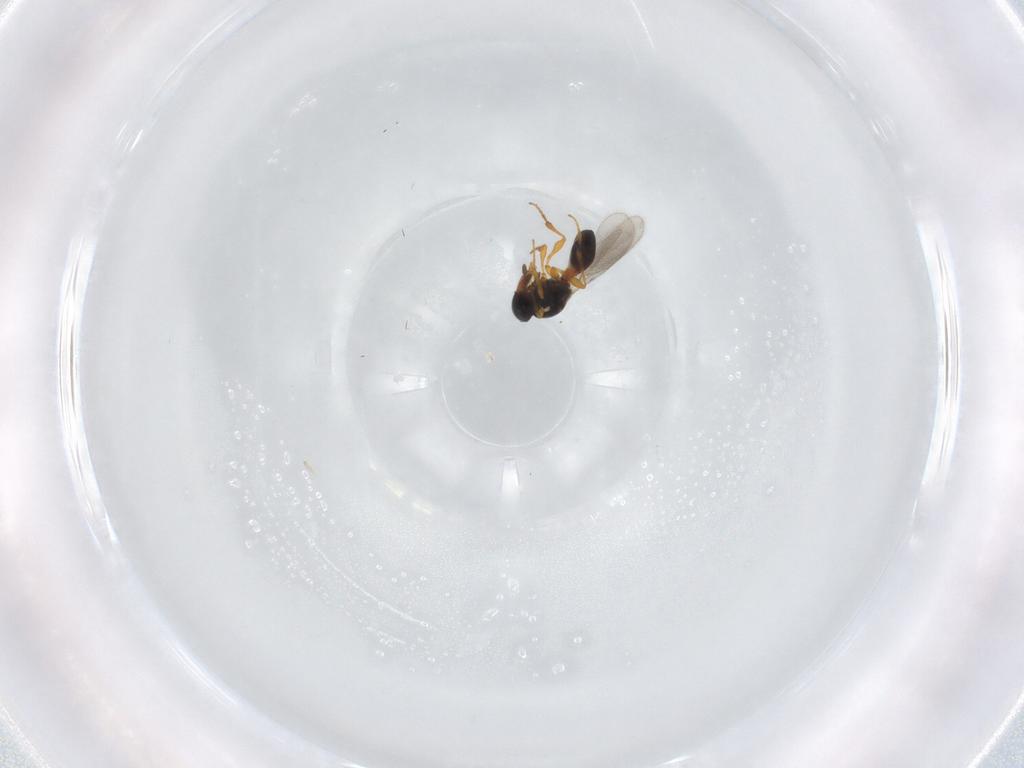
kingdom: Animalia
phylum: Arthropoda
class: Insecta
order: Hymenoptera
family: Platygastridae
